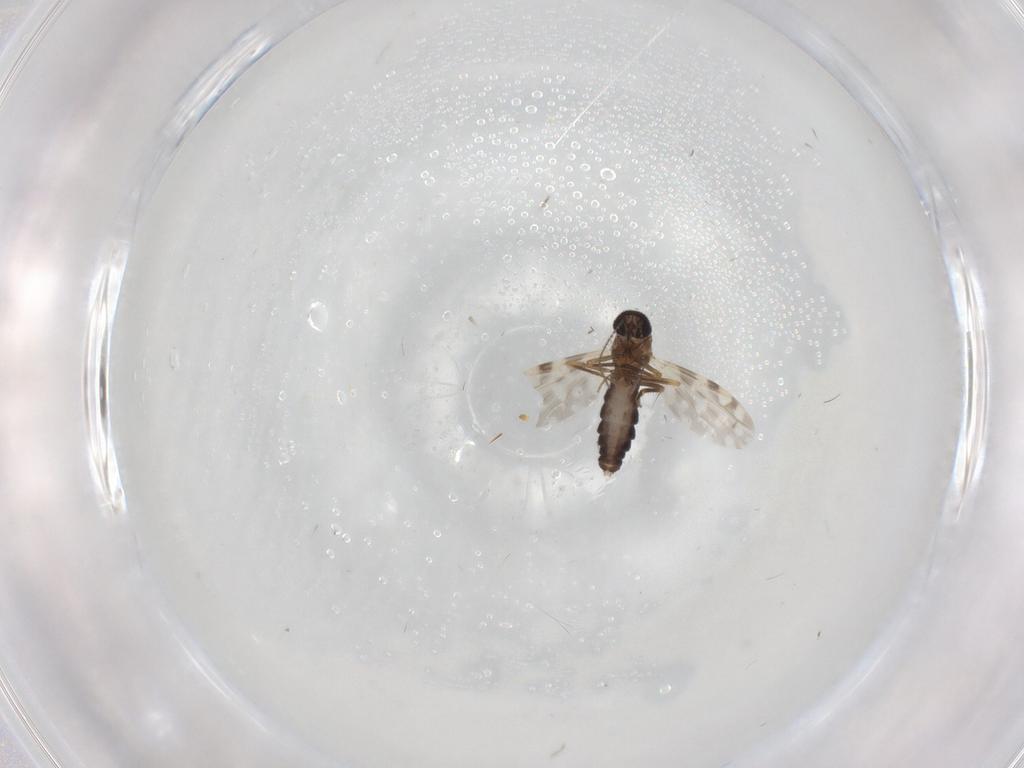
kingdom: Animalia
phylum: Arthropoda
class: Insecta
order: Diptera
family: Ceratopogonidae
